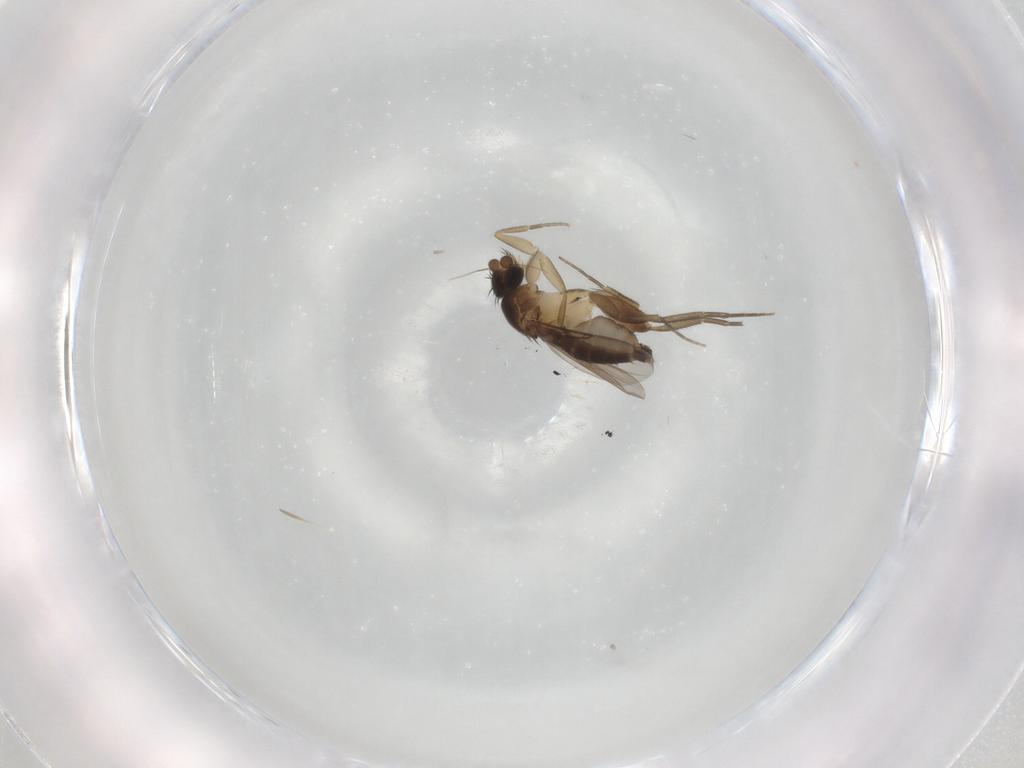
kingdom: Animalia
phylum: Arthropoda
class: Insecta
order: Diptera
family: Phoridae
